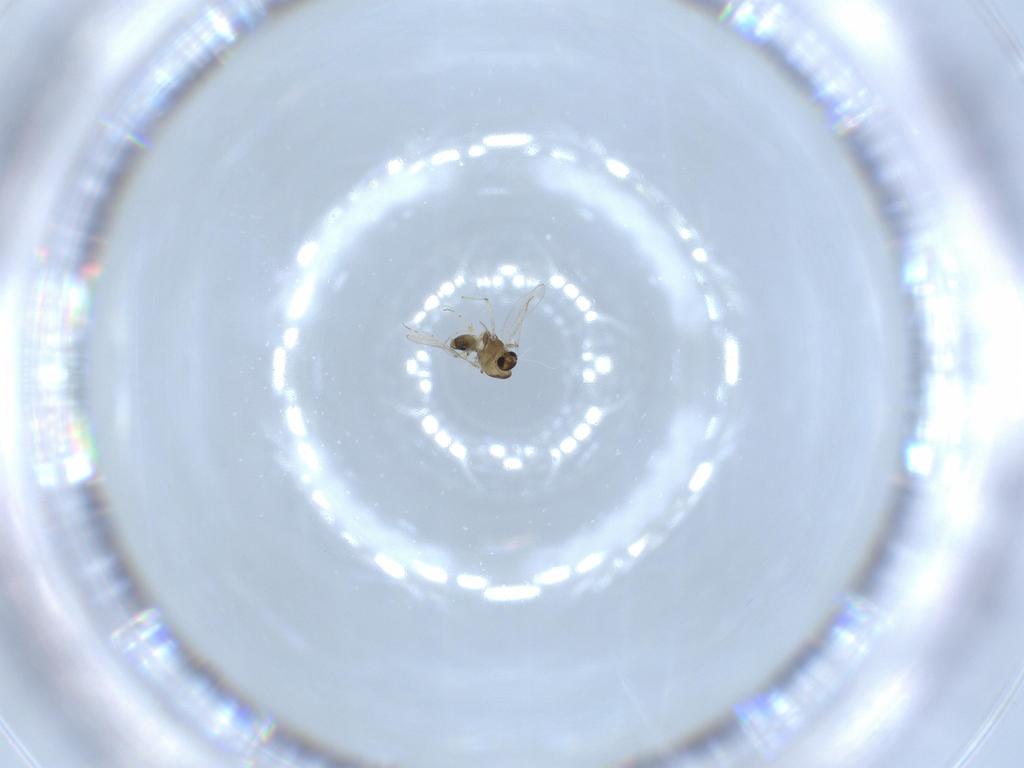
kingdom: Animalia
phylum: Arthropoda
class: Insecta
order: Diptera
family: Chironomidae
